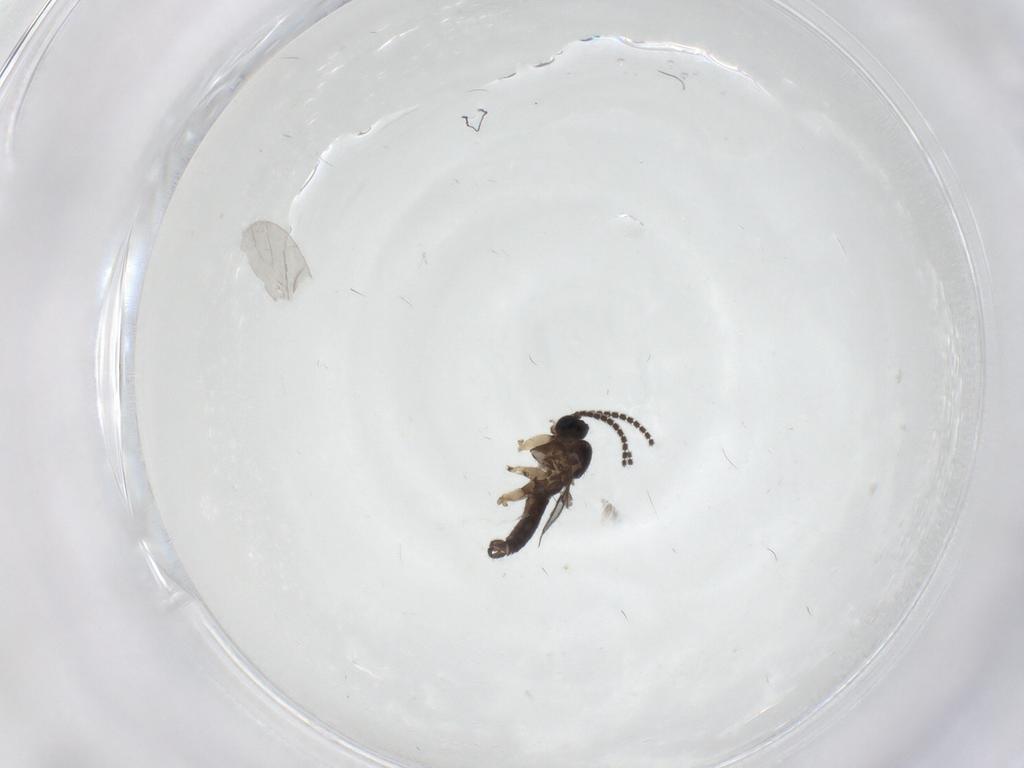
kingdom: Animalia
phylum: Arthropoda
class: Insecta
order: Diptera
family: Sciaridae
